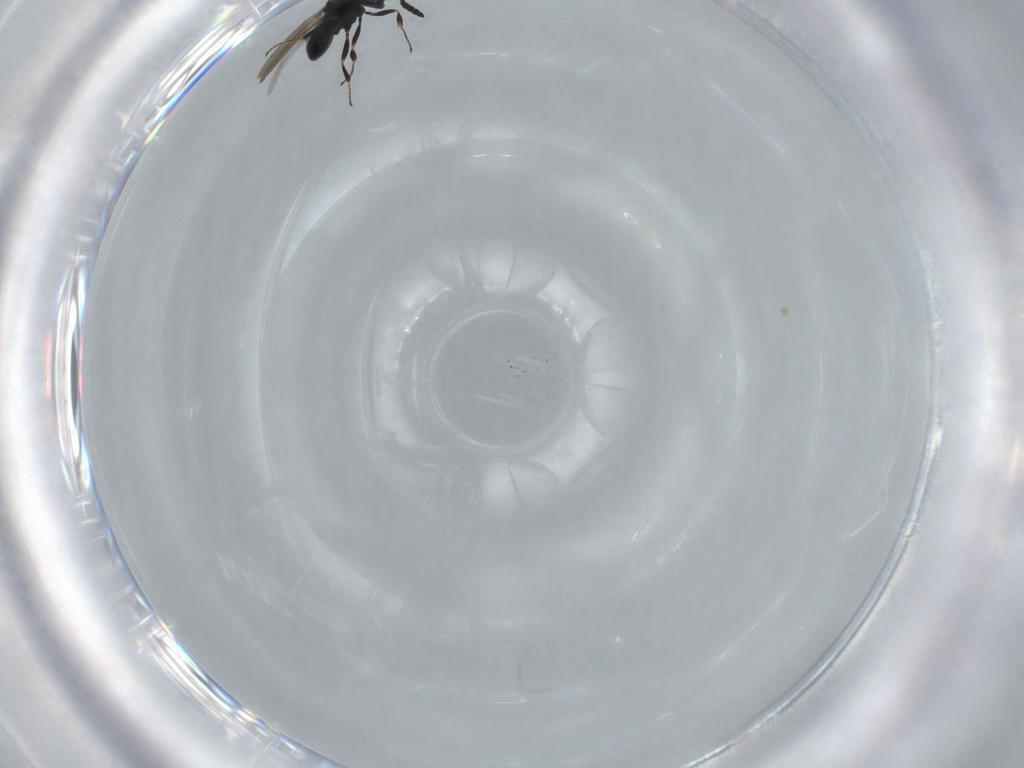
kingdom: Animalia
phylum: Arthropoda
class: Insecta
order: Hymenoptera
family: Scelionidae
